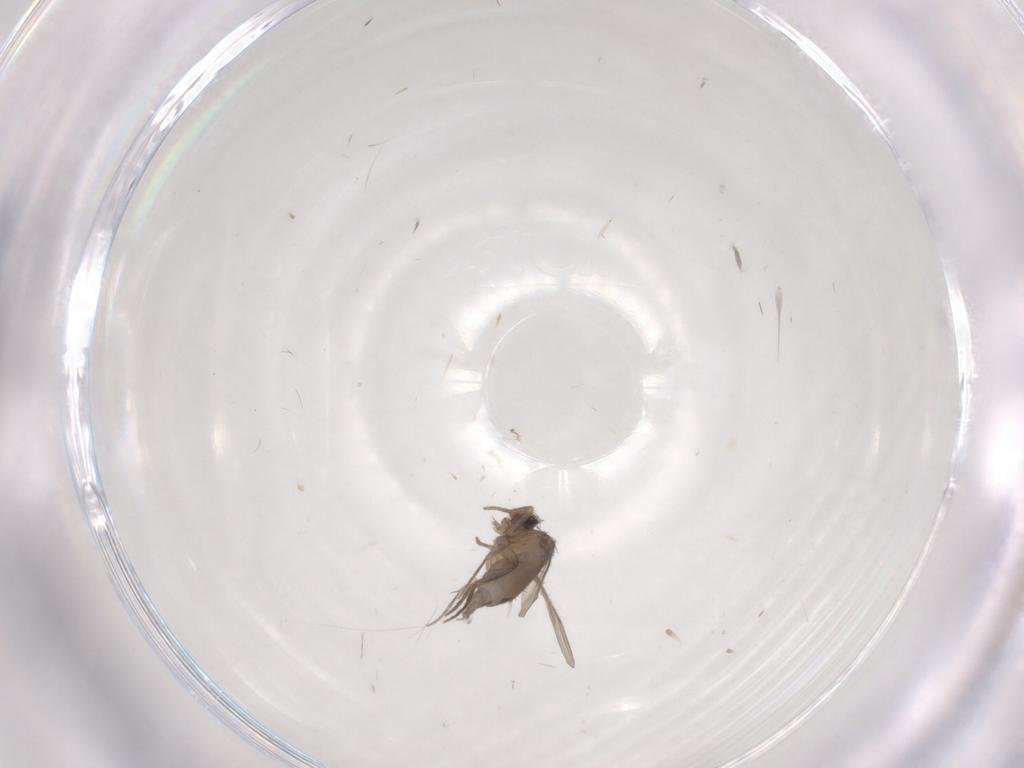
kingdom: Animalia
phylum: Arthropoda
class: Insecta
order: Diptera
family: Phoridae
